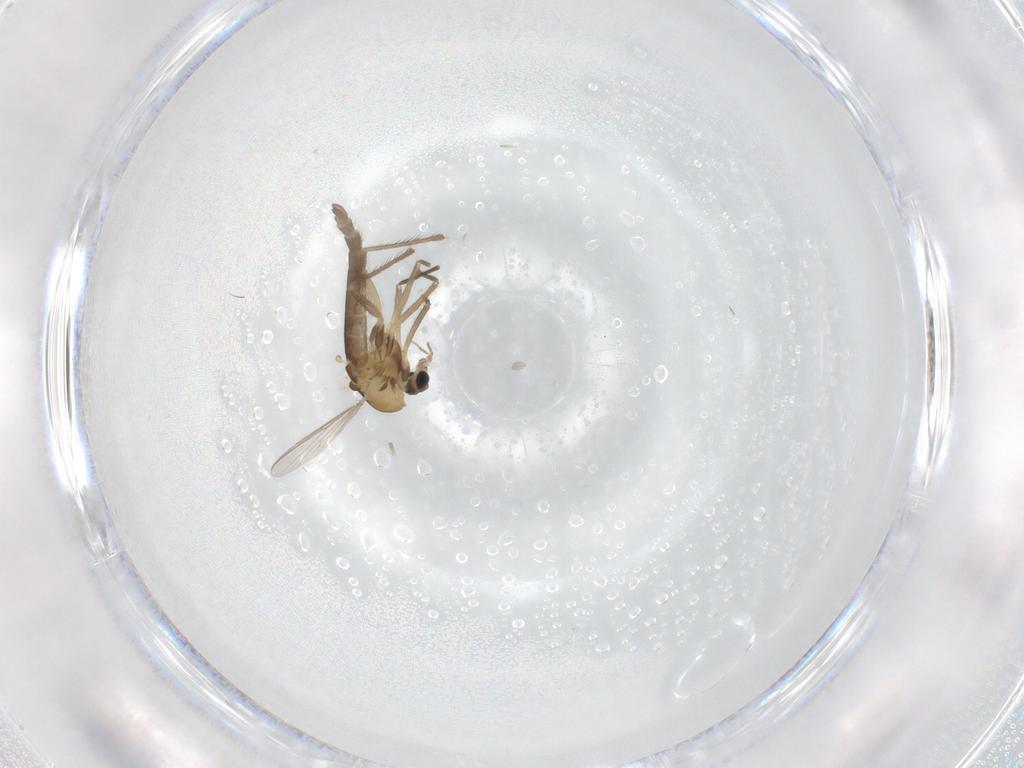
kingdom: Animalia
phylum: Arthropoda
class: Insecta
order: Diptera
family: Chironomidae
